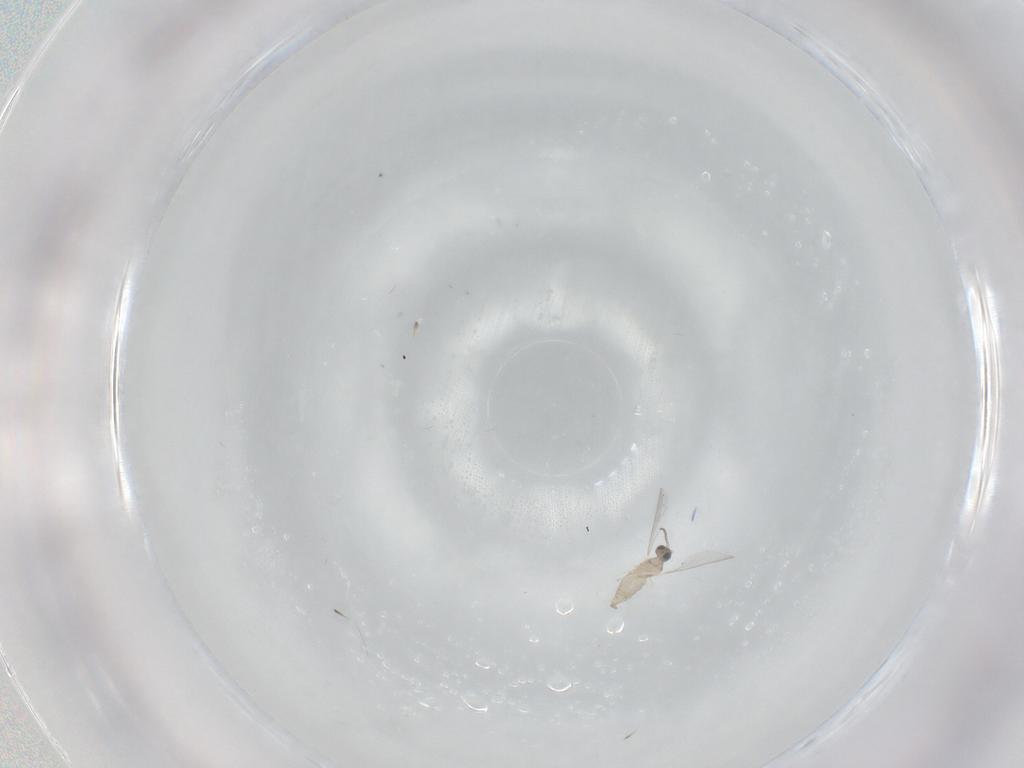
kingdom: Animalia
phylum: Arthropoda
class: Insecta
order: Diptera
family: Cecidomyiidae
